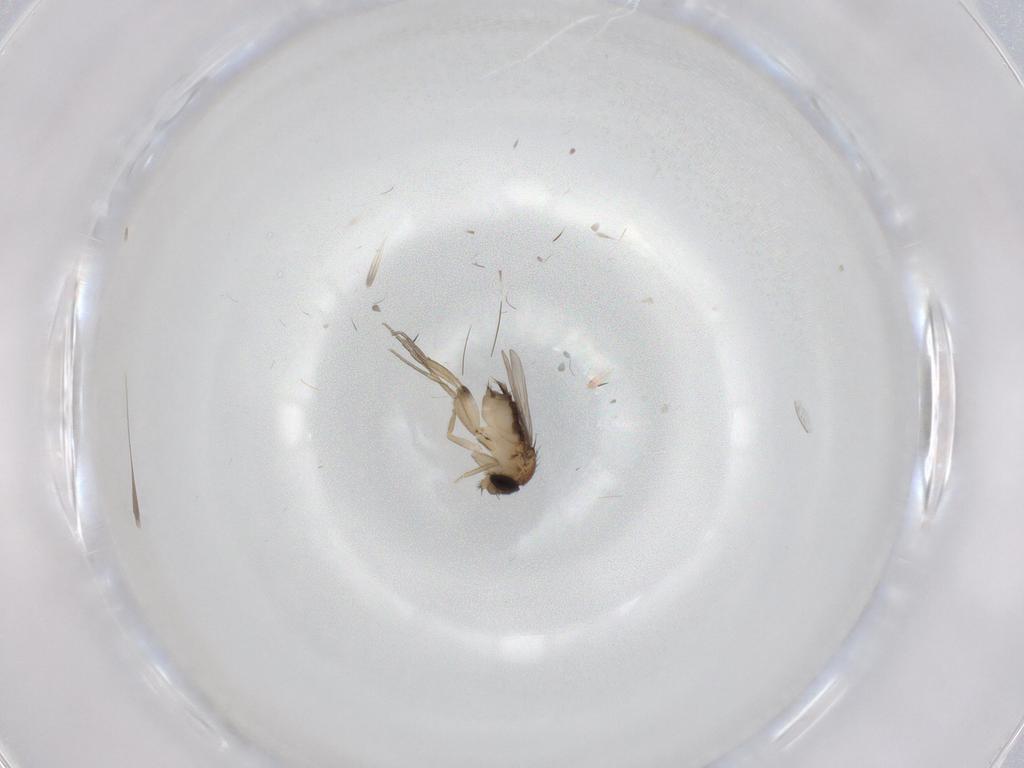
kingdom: Animalia
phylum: Arthropoda
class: Insecta
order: Diptera
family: Phoridae
